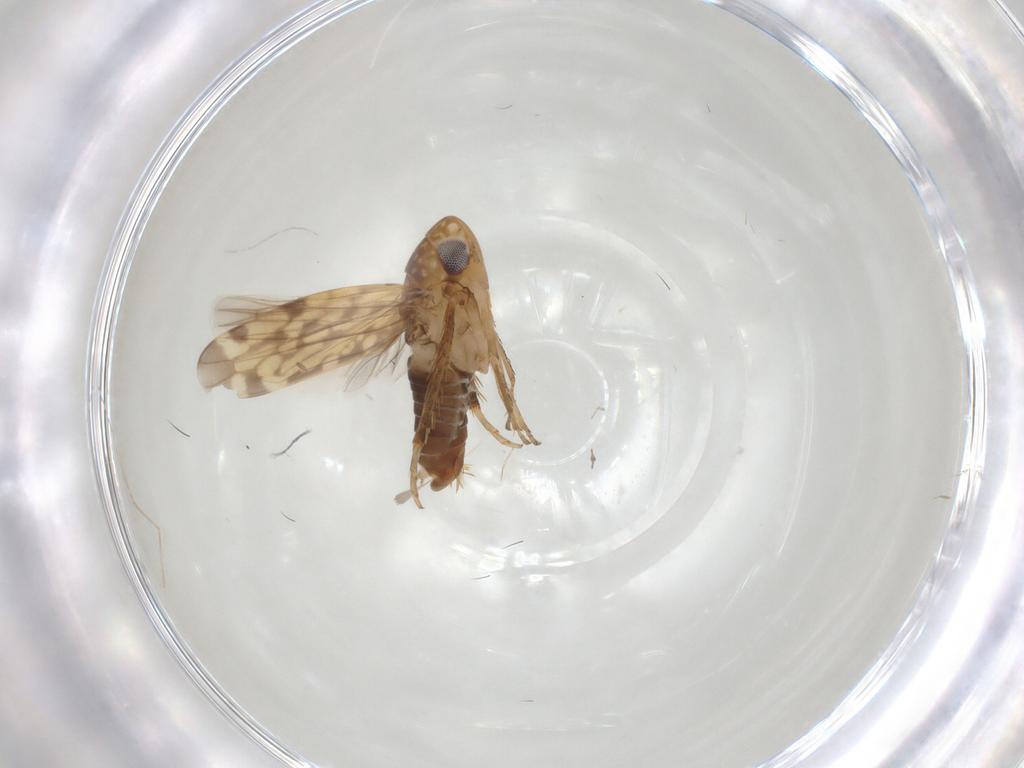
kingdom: Animalia
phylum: Arthropoda
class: Insecta
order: Hemiptera
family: Cicadellidae
